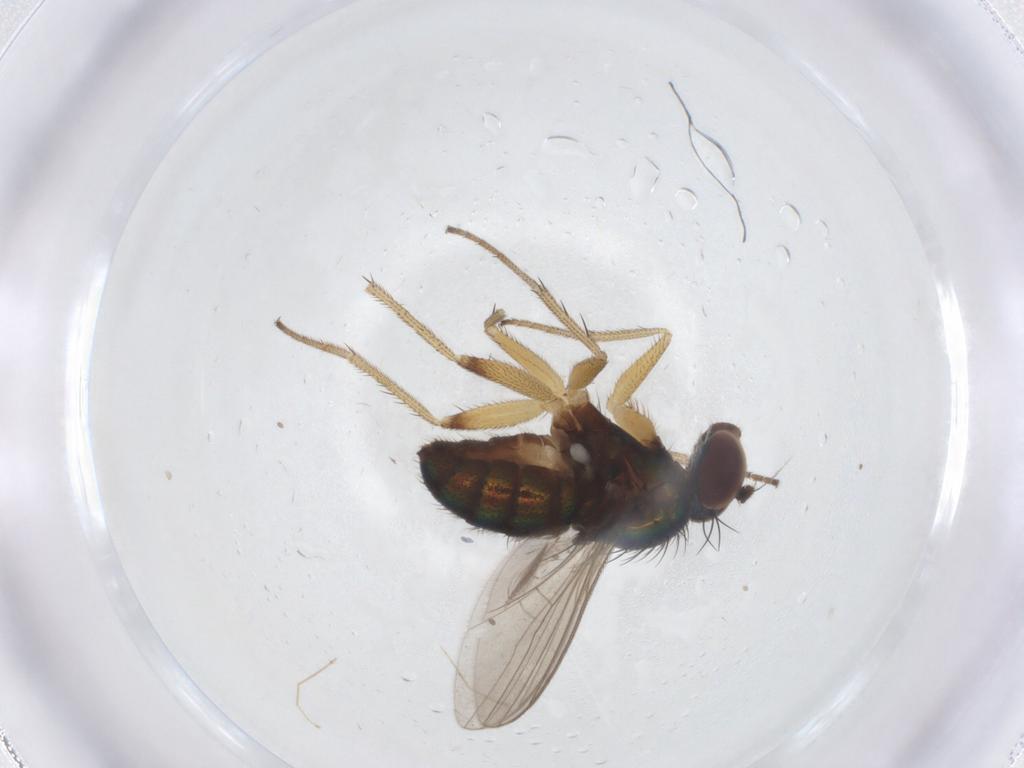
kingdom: Animalia
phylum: Arthropoda
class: Insecta
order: Diptera
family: Dolichopodidae
